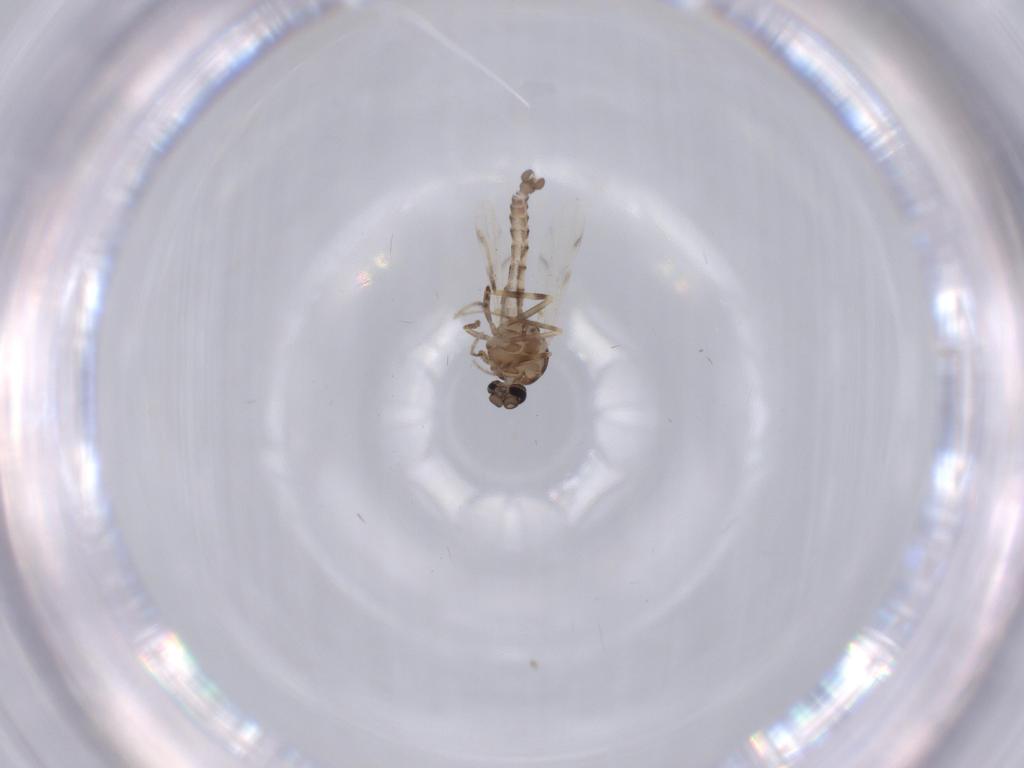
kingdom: Animalia
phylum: Arthropoda
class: Insecta
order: Diptera
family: Ceratopogonidae
